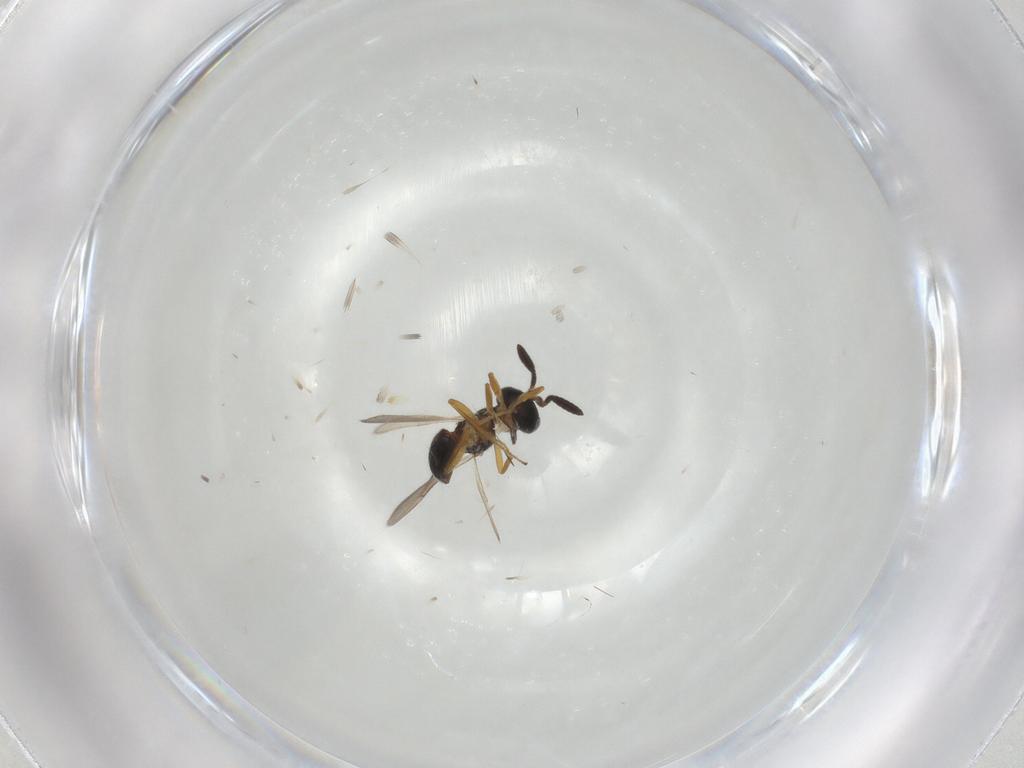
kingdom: Animalia
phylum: Arthropoda
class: Insecta
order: Hymenoptera
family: Scelionidae
